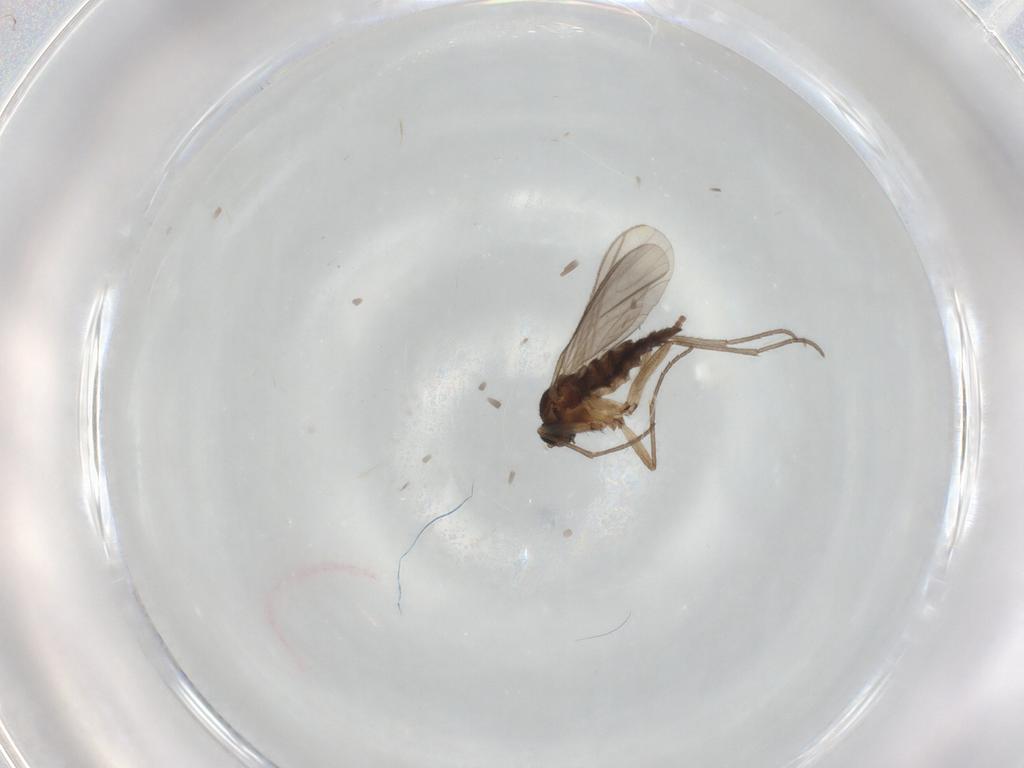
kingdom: Animalia
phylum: Arthropoda
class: Insecta
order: Diptera
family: Sciaridae
